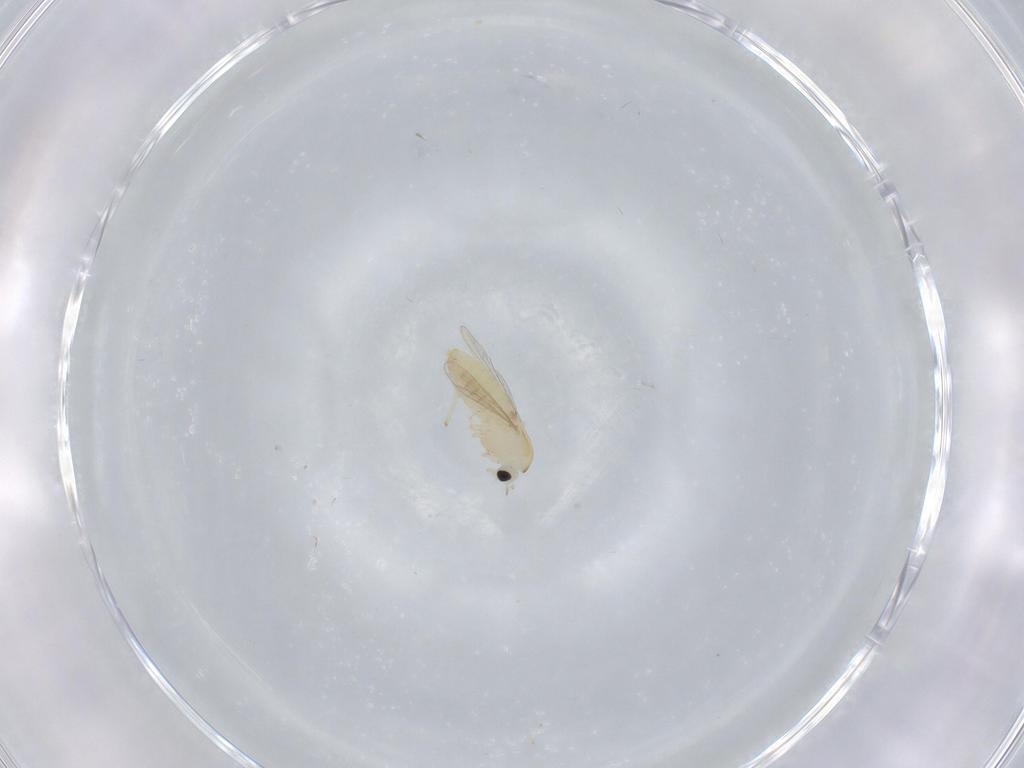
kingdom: Animalia
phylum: Arthropoda
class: Insecta
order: Diptera
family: Chironomidae
